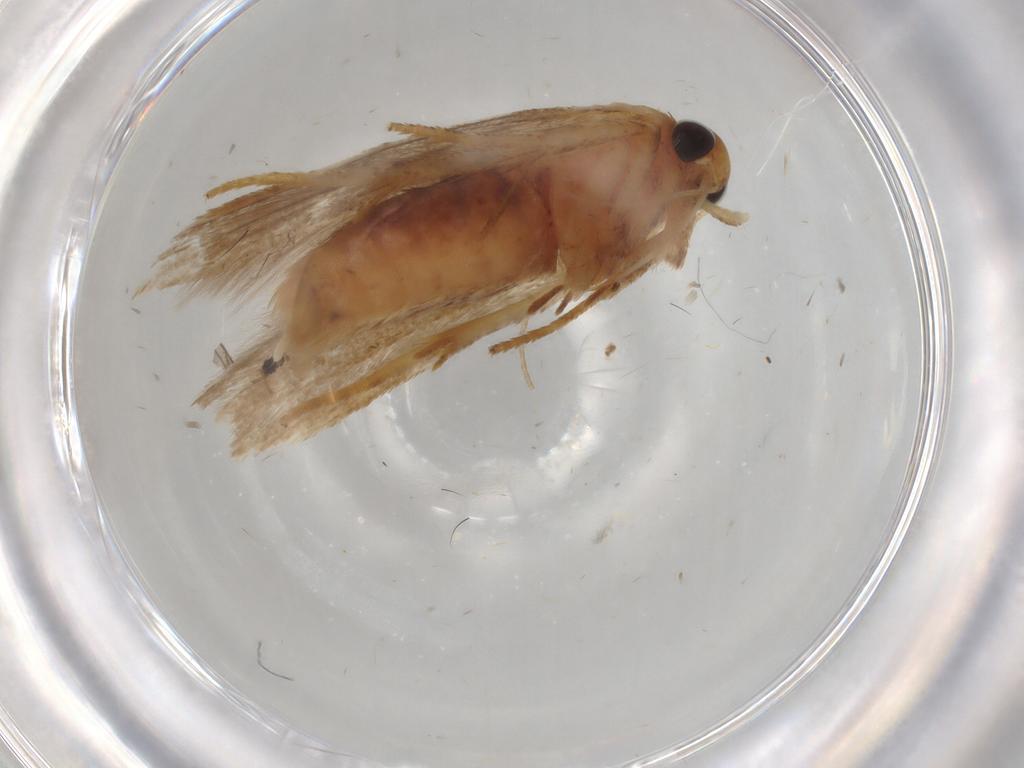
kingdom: Animalia
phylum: Arthropoda
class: Insecta
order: Lepidoptera
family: Blastobasidae
